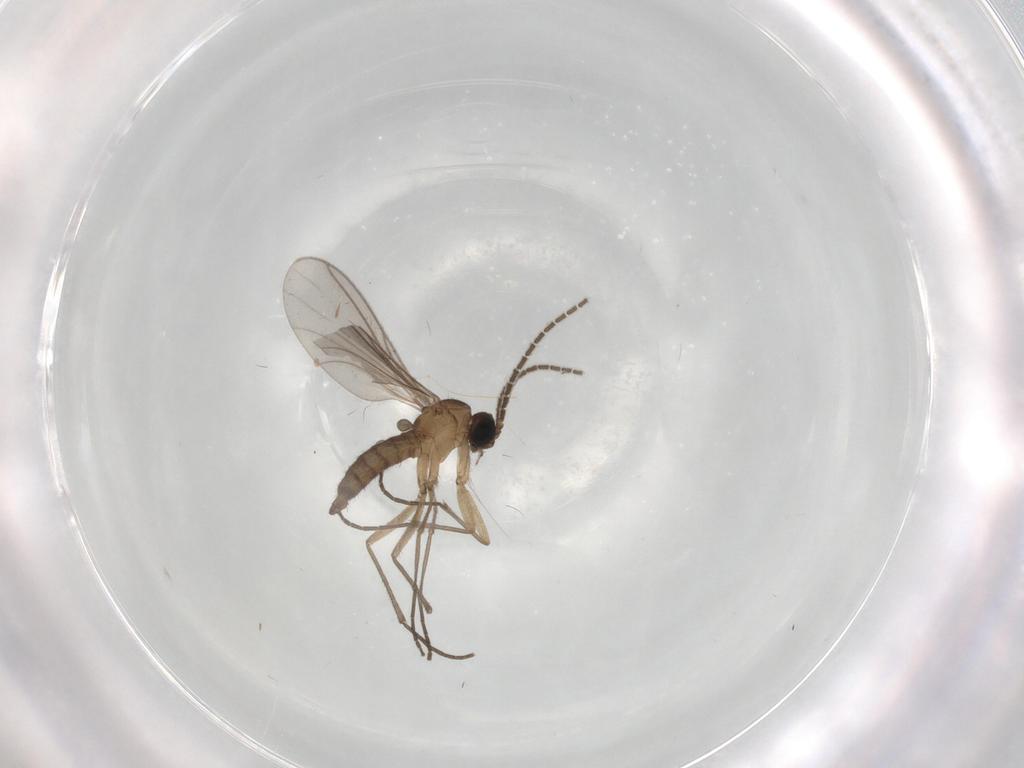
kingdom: Animalia
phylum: Arthropoda
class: Insecta
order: Diptera
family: Sciaridae
